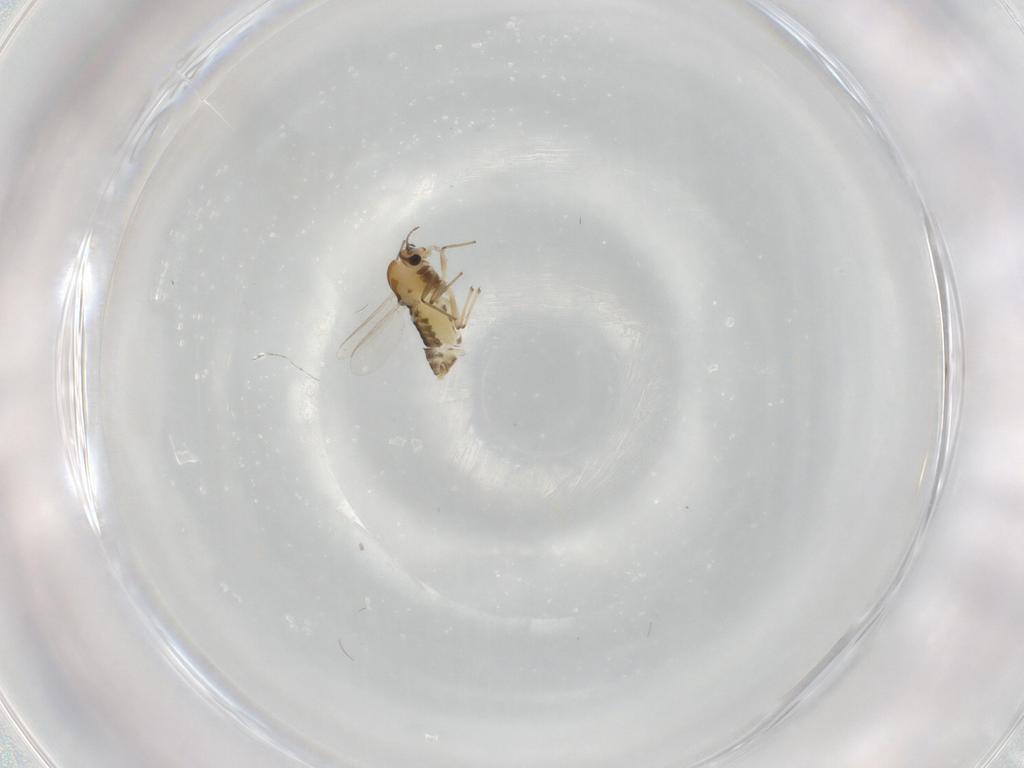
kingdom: Animalia
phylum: Arthropoda
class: Insecta
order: Diptera
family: Chironomidae
